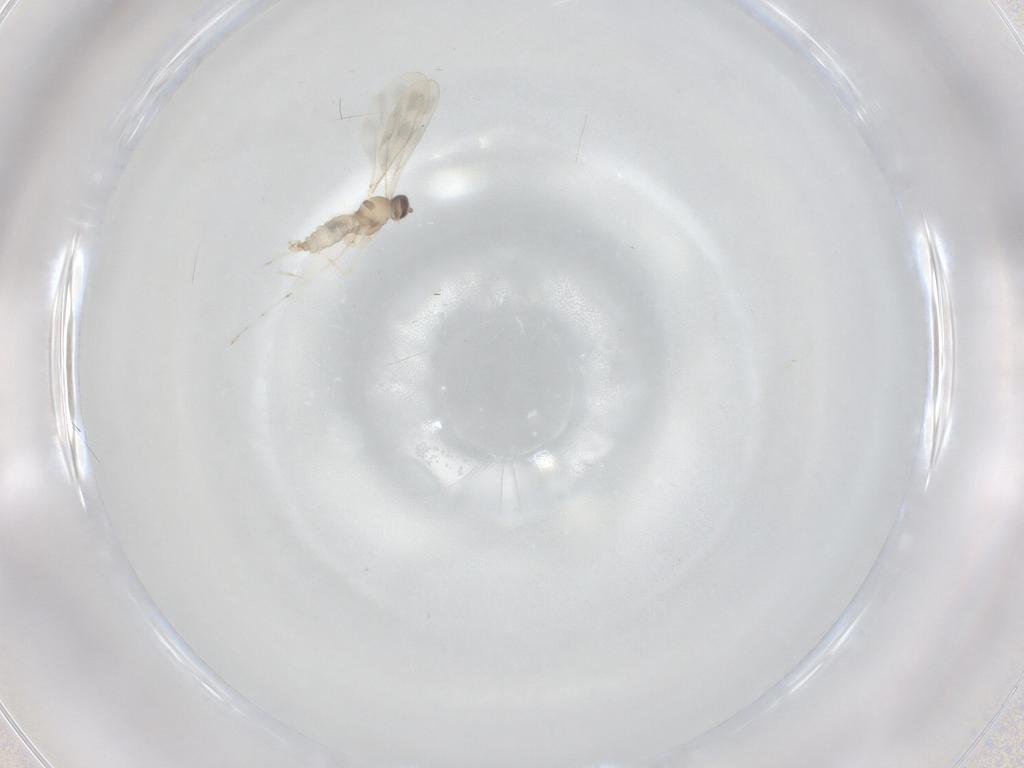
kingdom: Animalia
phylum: Arthropoda
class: Insecta
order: Diptera
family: Cecidomyiidae
